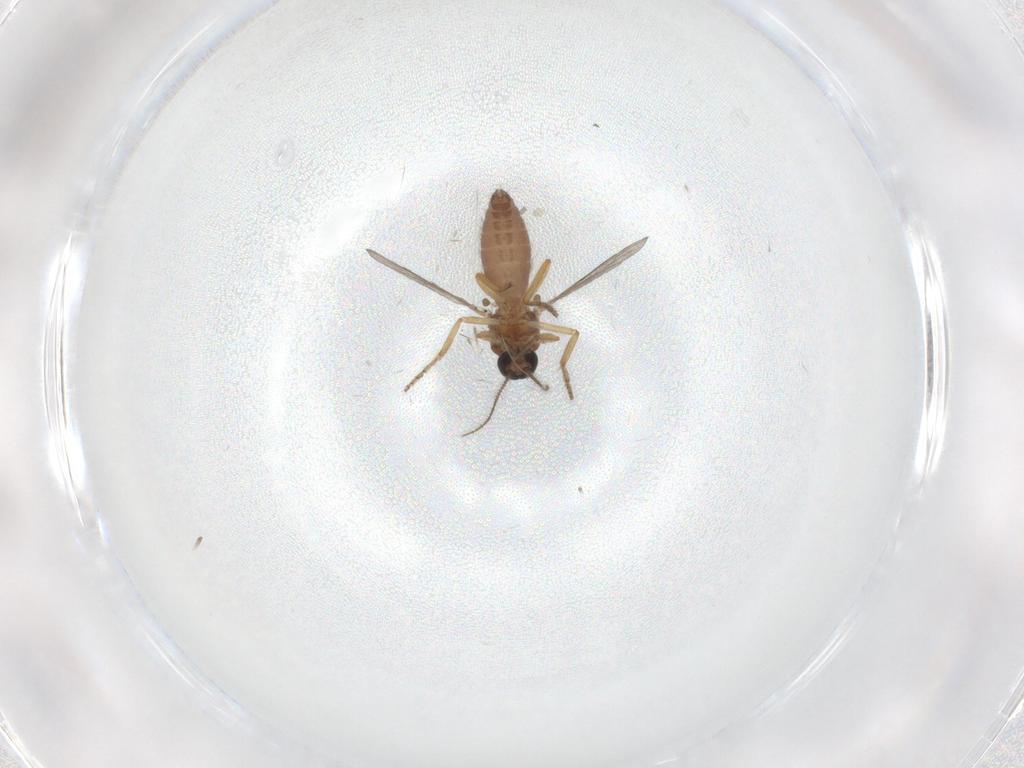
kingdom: Animalia
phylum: Arthropoda
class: Insecta
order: Diptera
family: Ceratopogonidae
